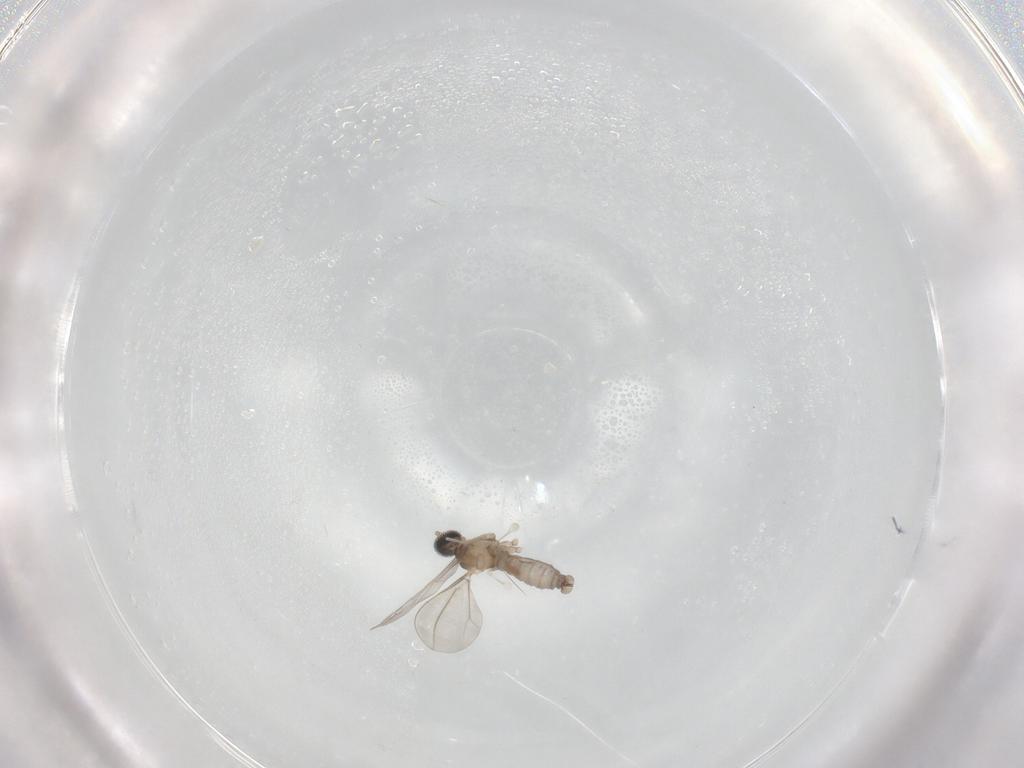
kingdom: Animalia
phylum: Arthropoda
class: Insecta
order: Diptera
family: Cecidomyiidae
